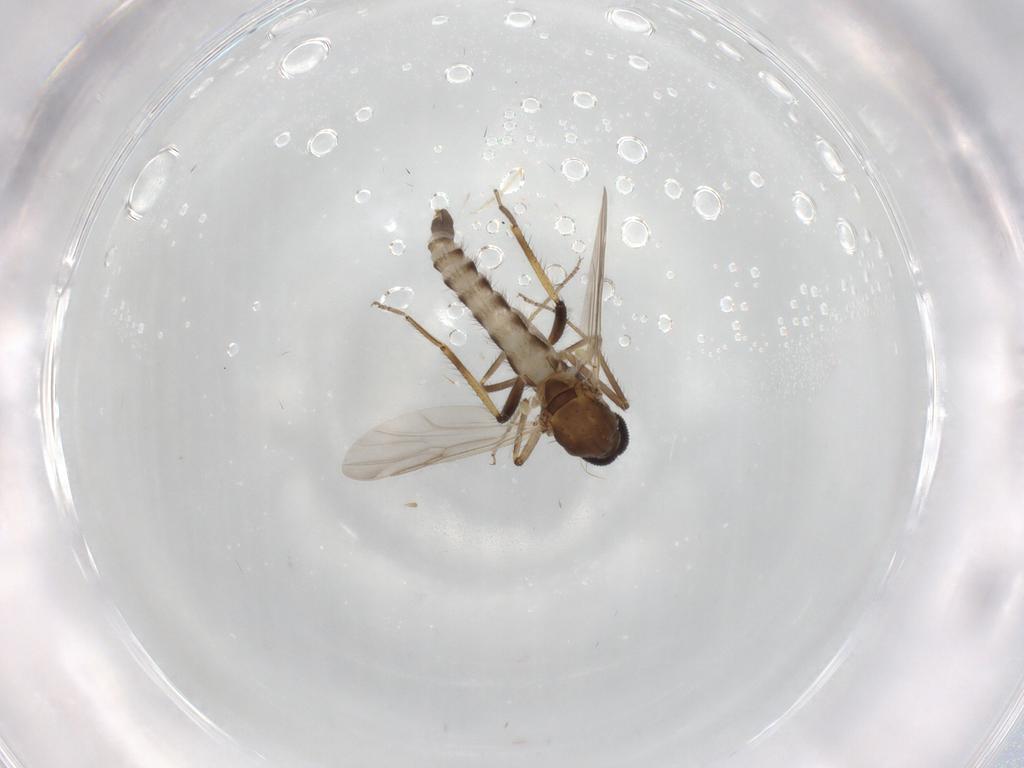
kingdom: Animalia
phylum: Arthropoda
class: Insecta
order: Diptera
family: Ceratopogonidae
